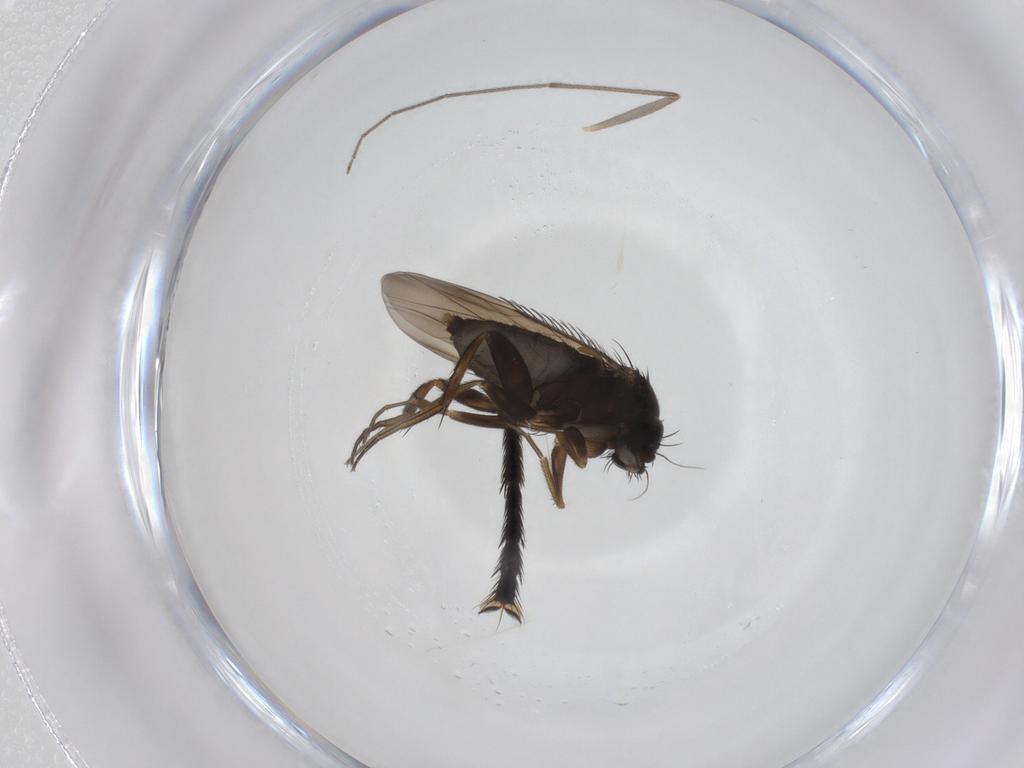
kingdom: Animalia
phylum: Arthropoda
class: Insecta
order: Diptera
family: Phoridae
